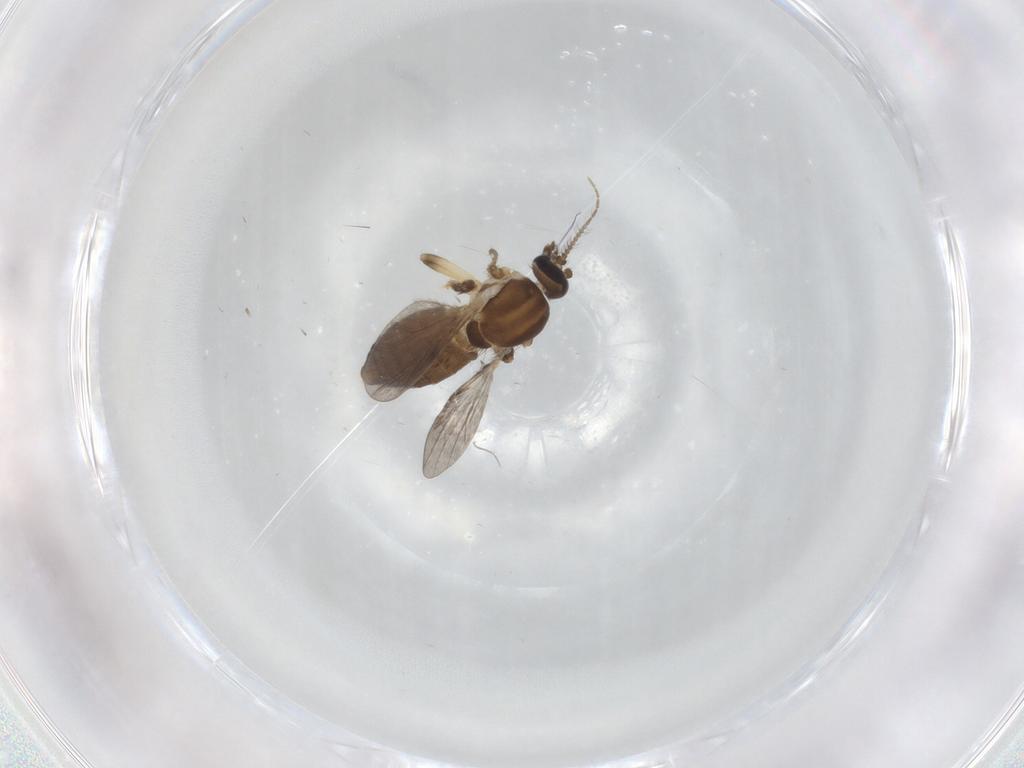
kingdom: Animalia
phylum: Arthropoda
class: Insecta
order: Diptera
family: Ceratopogonidae
